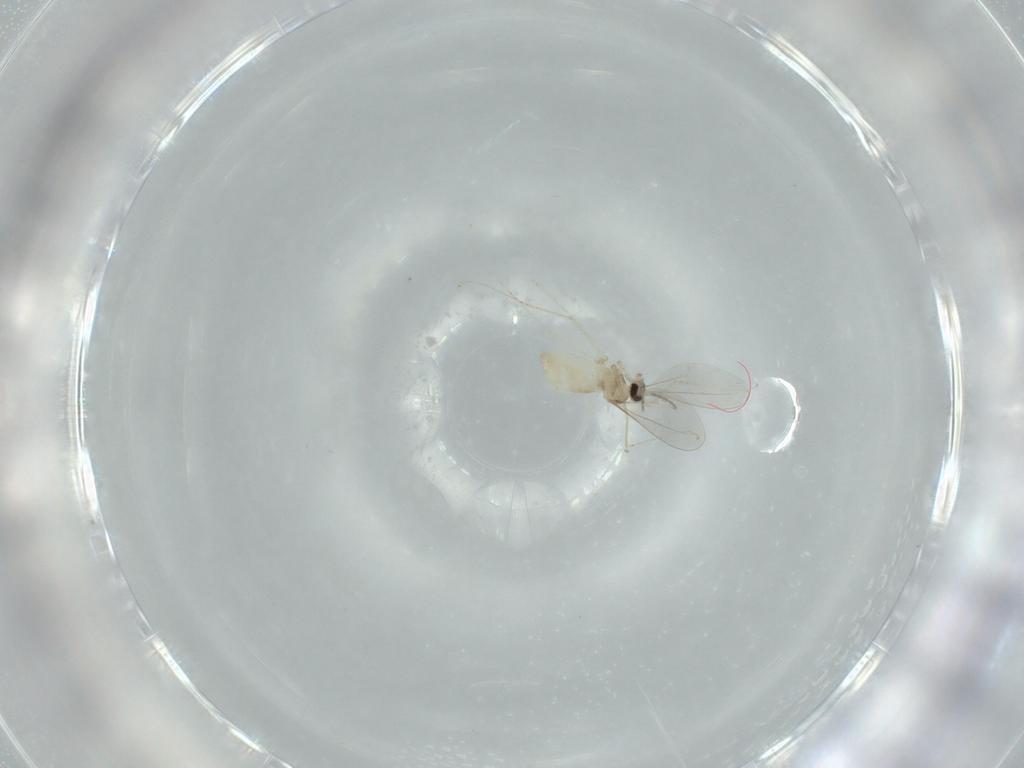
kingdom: Animalia
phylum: Arthropoda
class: Insecta
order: Diptera
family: Cecidomyiidae
